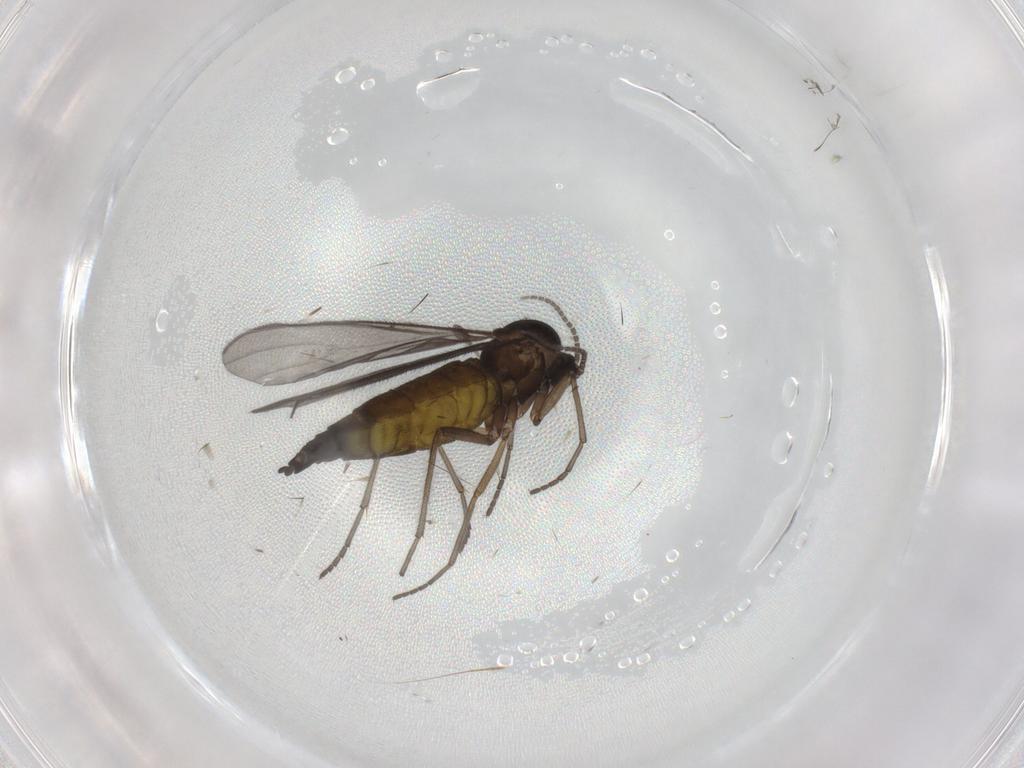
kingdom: Animalia
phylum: Arthropoda
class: Insecta
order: Diptera
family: Sciaridae
